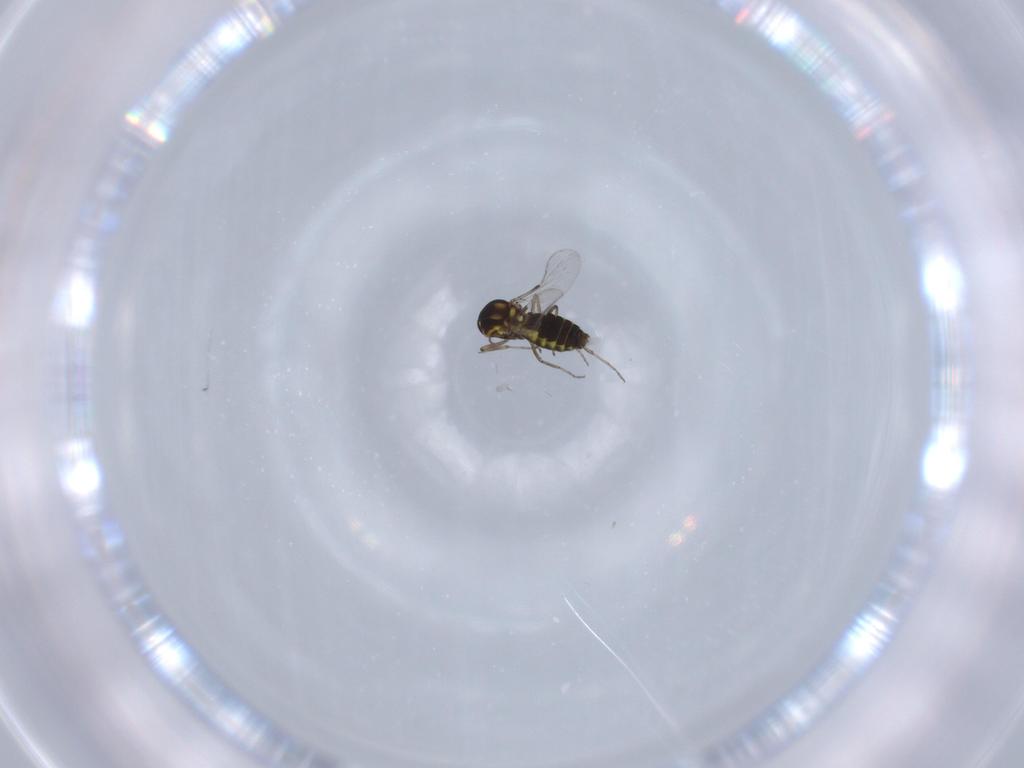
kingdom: Animalia
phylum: Arthropoda
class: Insecta
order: Diptera
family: Ceratopogonidae
